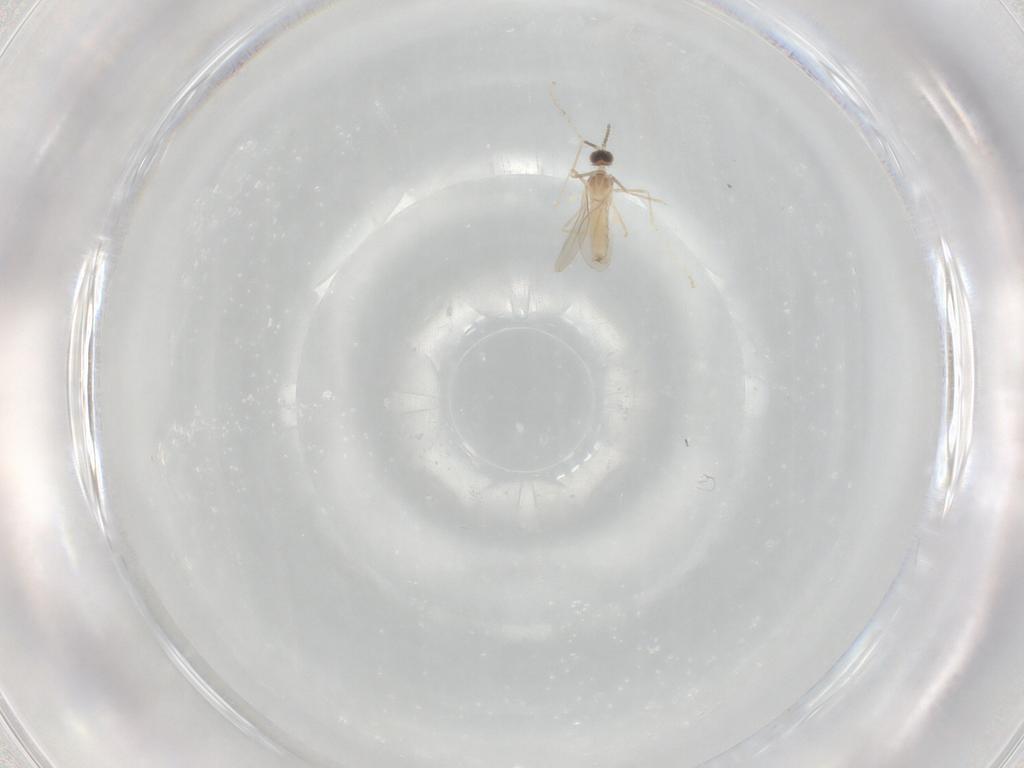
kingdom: Animalia
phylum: Arthropoda
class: Insecta
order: Diptera
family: Cecidomyiidae
